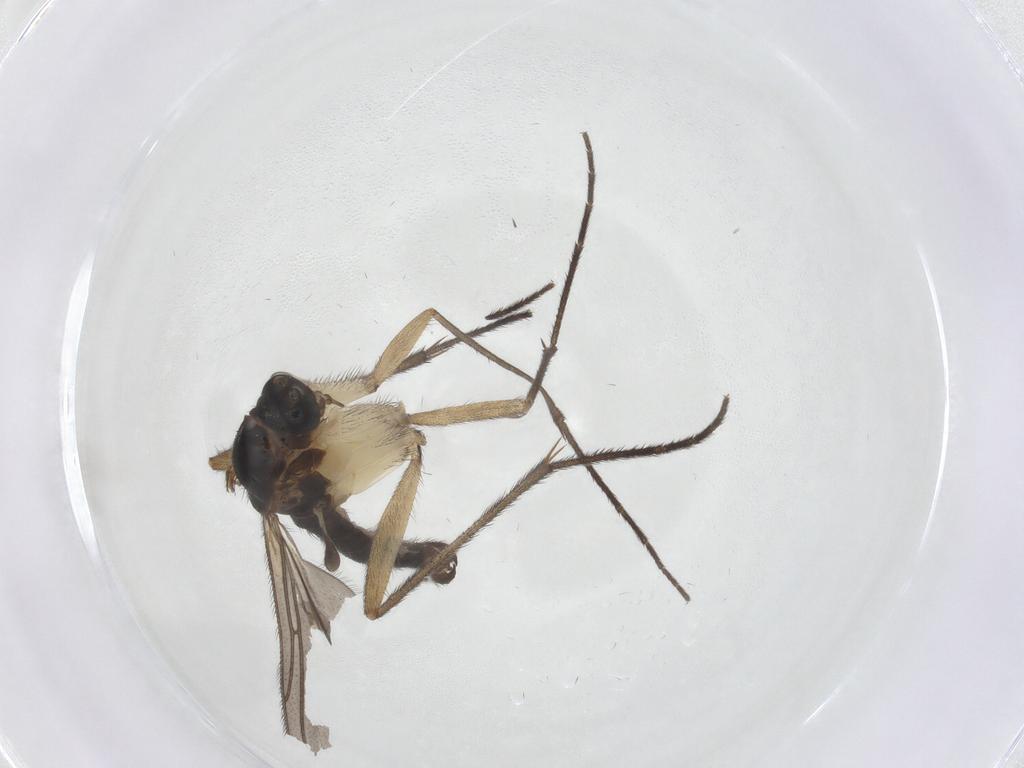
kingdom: Animalia
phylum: Arthropoda
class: Insecta
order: Diptera
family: Sciaridae
